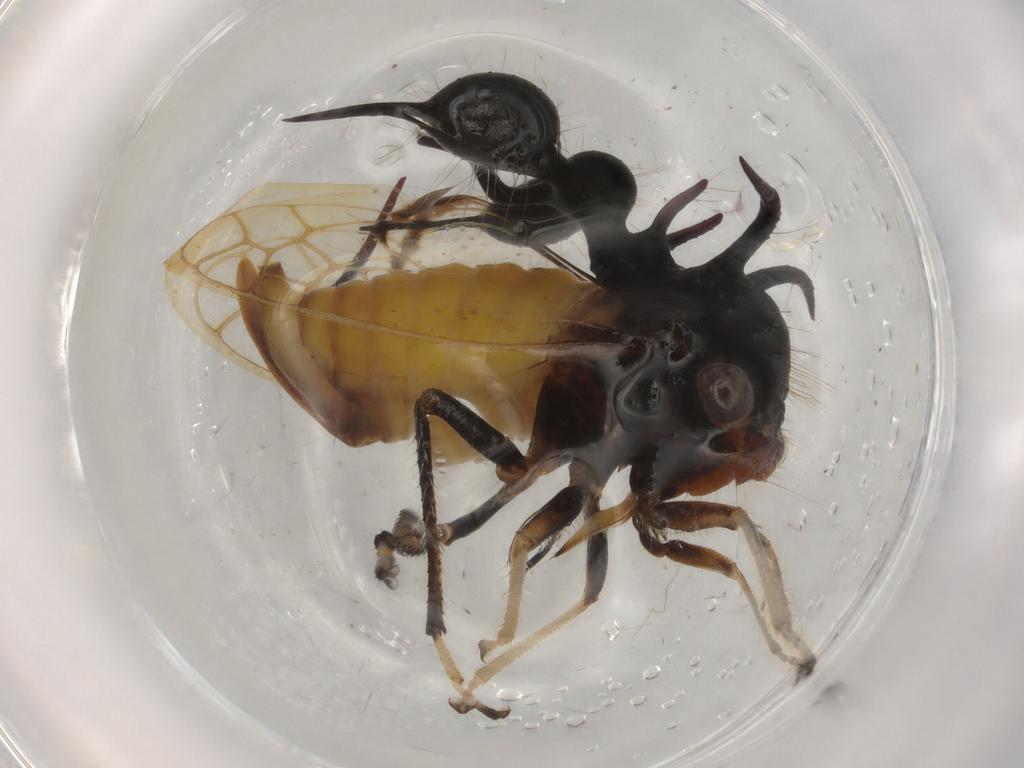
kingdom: Animalia
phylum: Arthropoda
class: Insecta
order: Hemiptera
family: Membracidae
